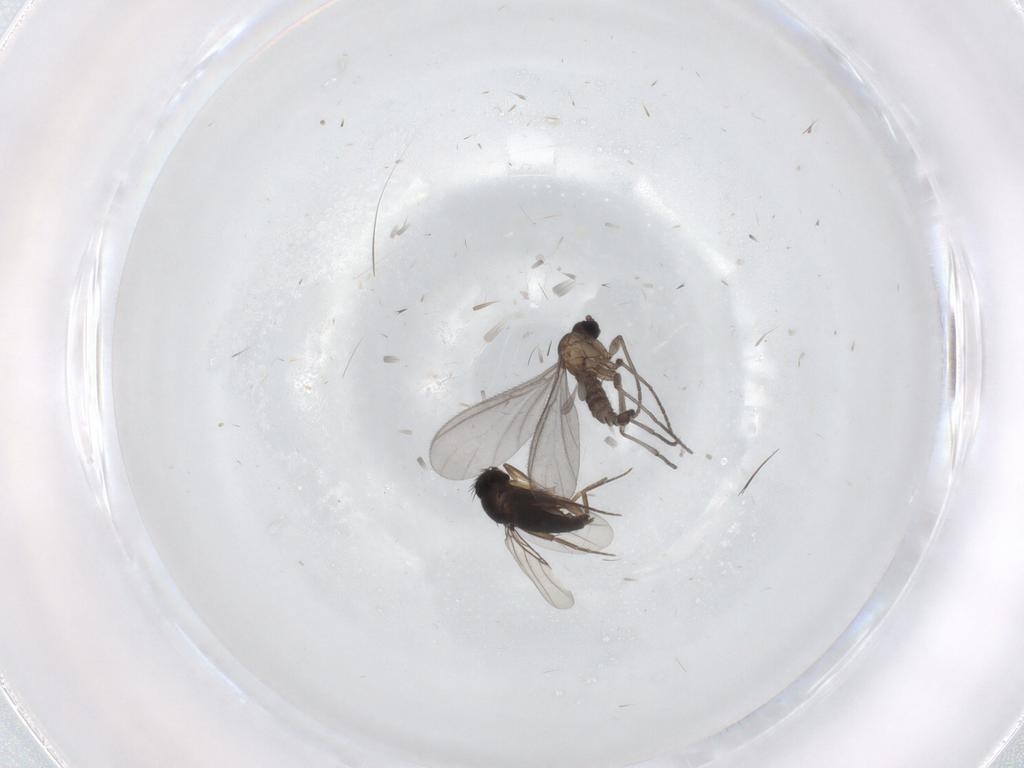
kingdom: Animalia
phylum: Arthropoda
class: Insecta
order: Diptera
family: Sciaridae
